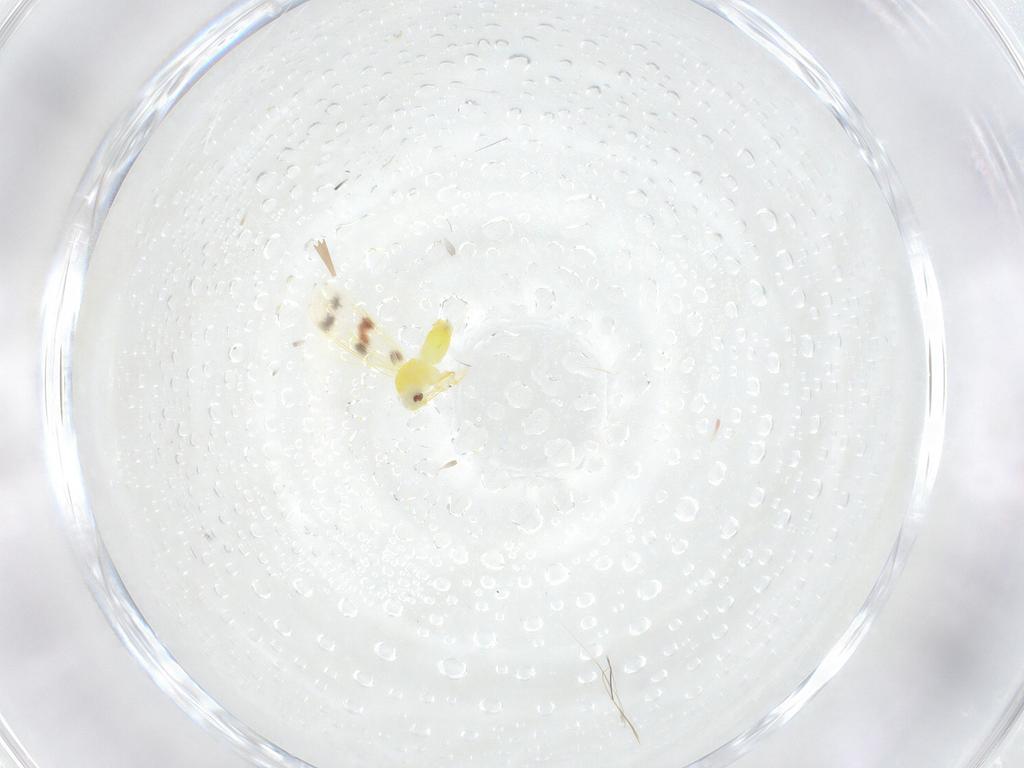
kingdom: Animalia
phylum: Arthropoda
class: Insecta
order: Hemiptera
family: Aleyrodidae
